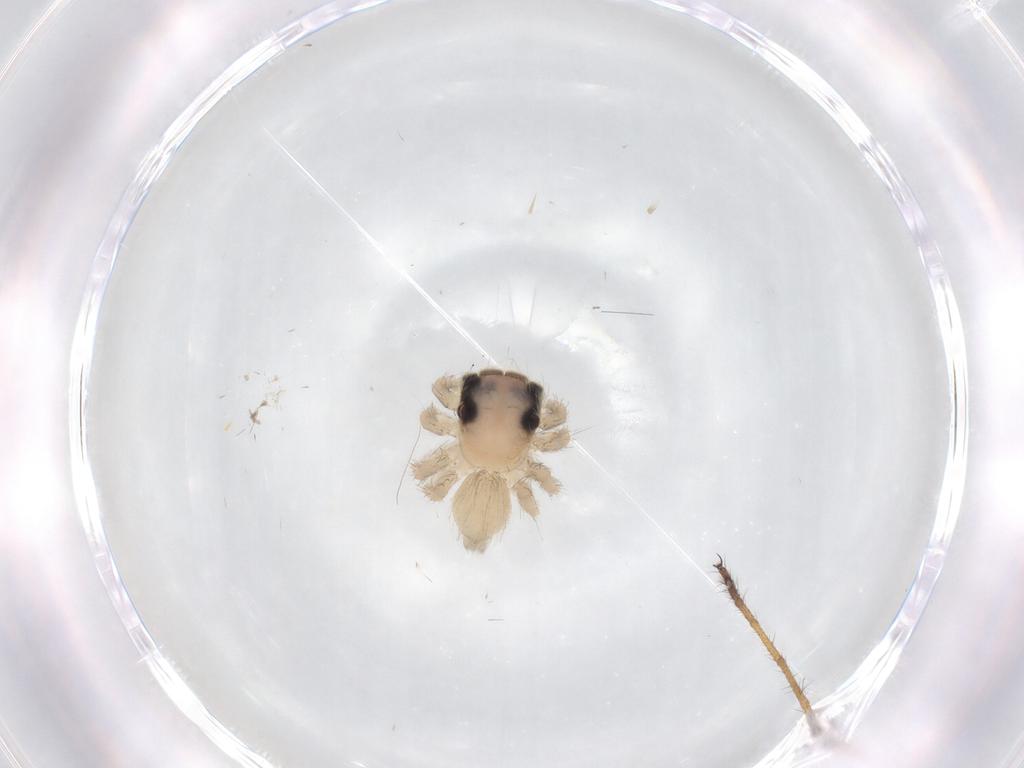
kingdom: Animalia
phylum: Arthropoda
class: Arachnida
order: Araneae
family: Salticidae
